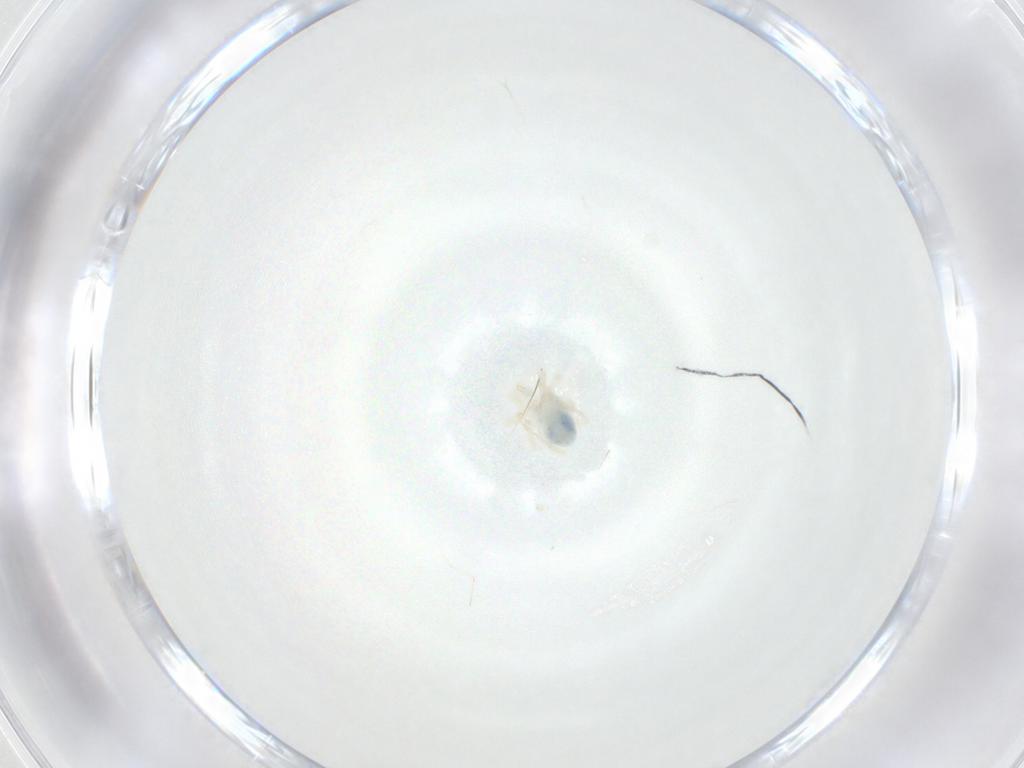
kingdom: Animalia
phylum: Arthropoda
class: Insecta
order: Diptera
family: Cecidomyiidae
